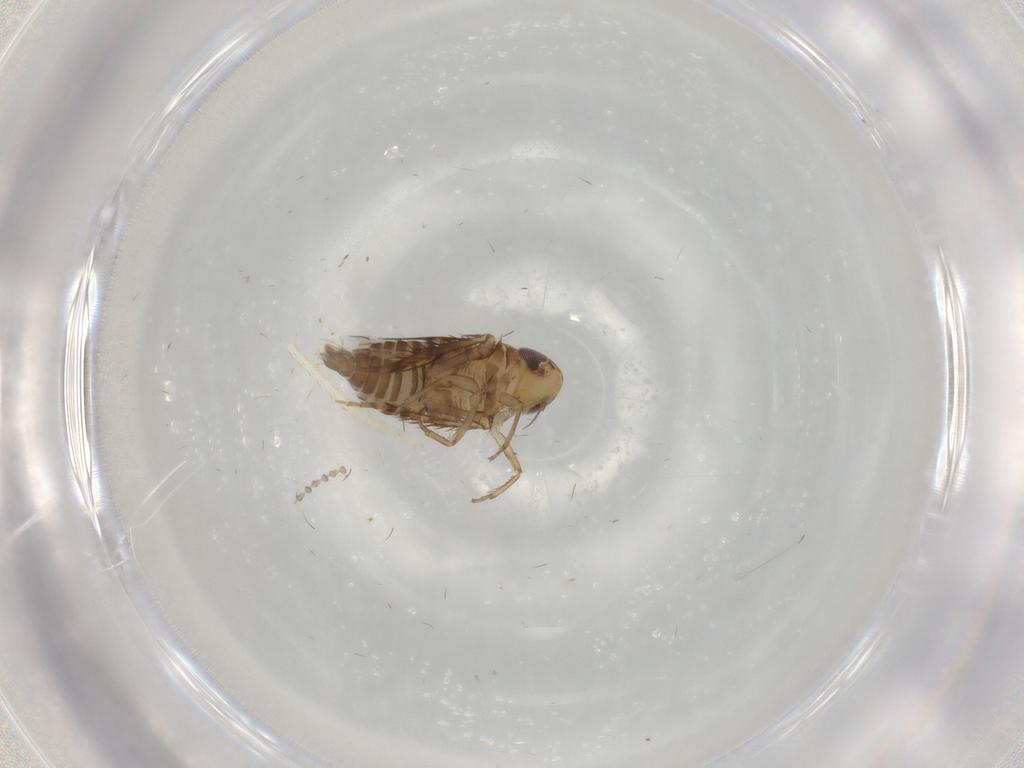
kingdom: Animalia
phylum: Arthropoda
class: Insecta
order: Hemiptera
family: Cicadellidae
